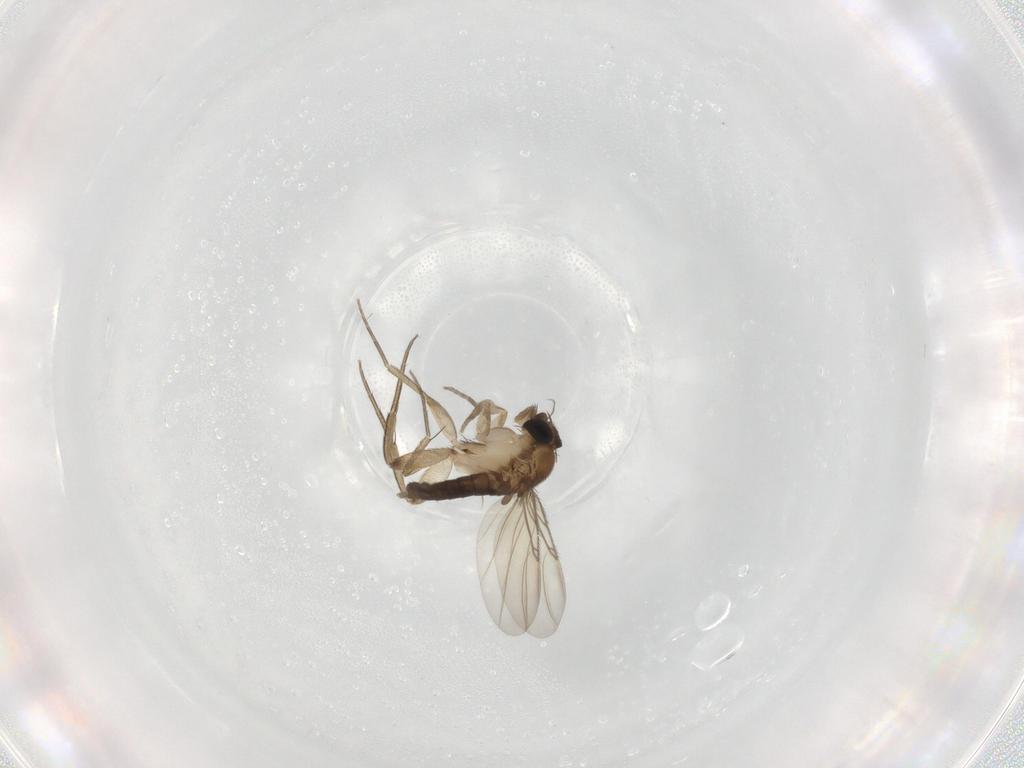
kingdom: Animalia
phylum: Arthropoda
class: Insecta
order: Diptera
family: Phoridae
